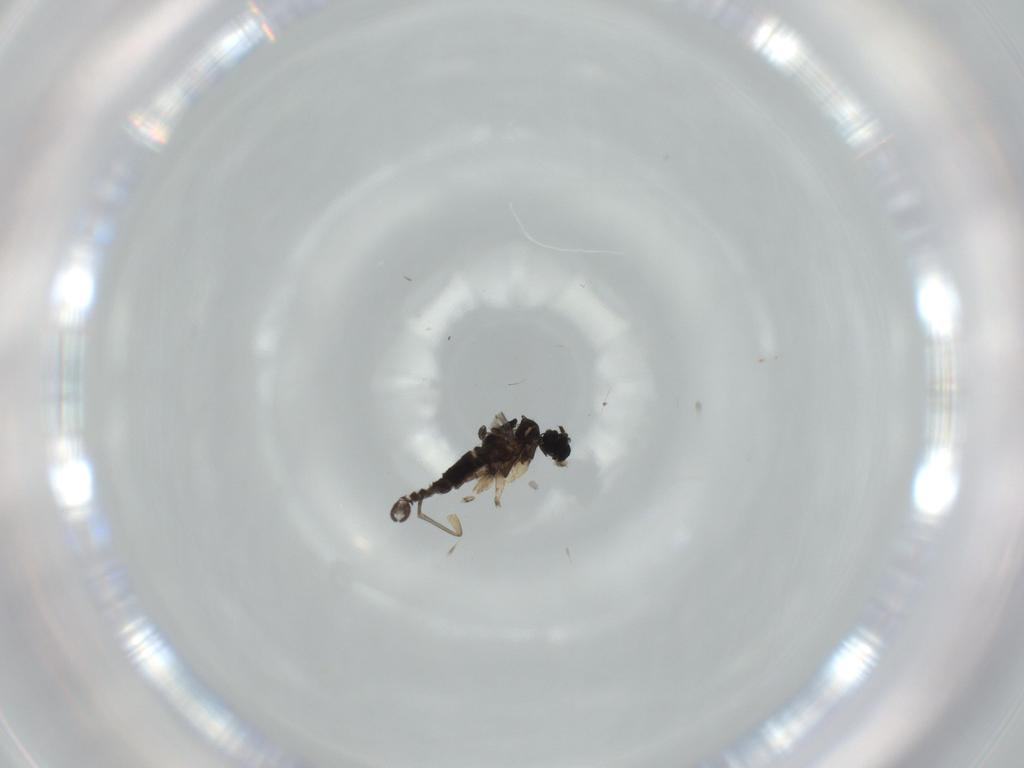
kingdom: Animalia
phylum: Arthropoda
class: Insecta
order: Diptera
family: Sciaridae
